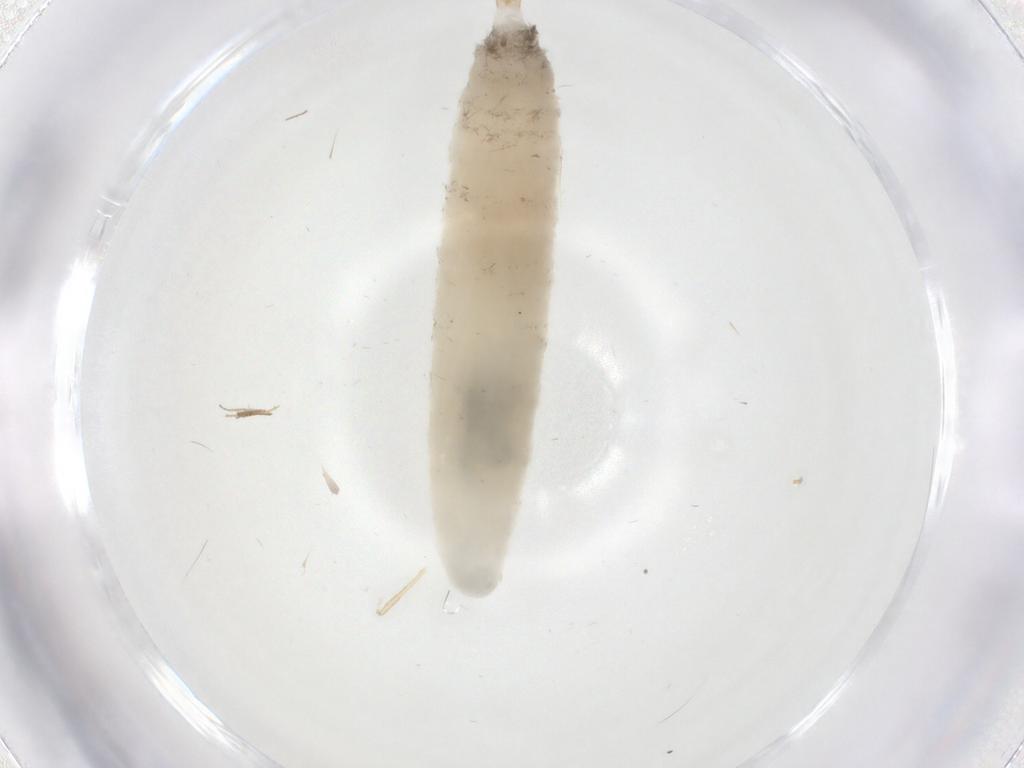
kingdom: Animalia
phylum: Arthropoda
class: Insecta
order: Diptera
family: Drosophilidae
